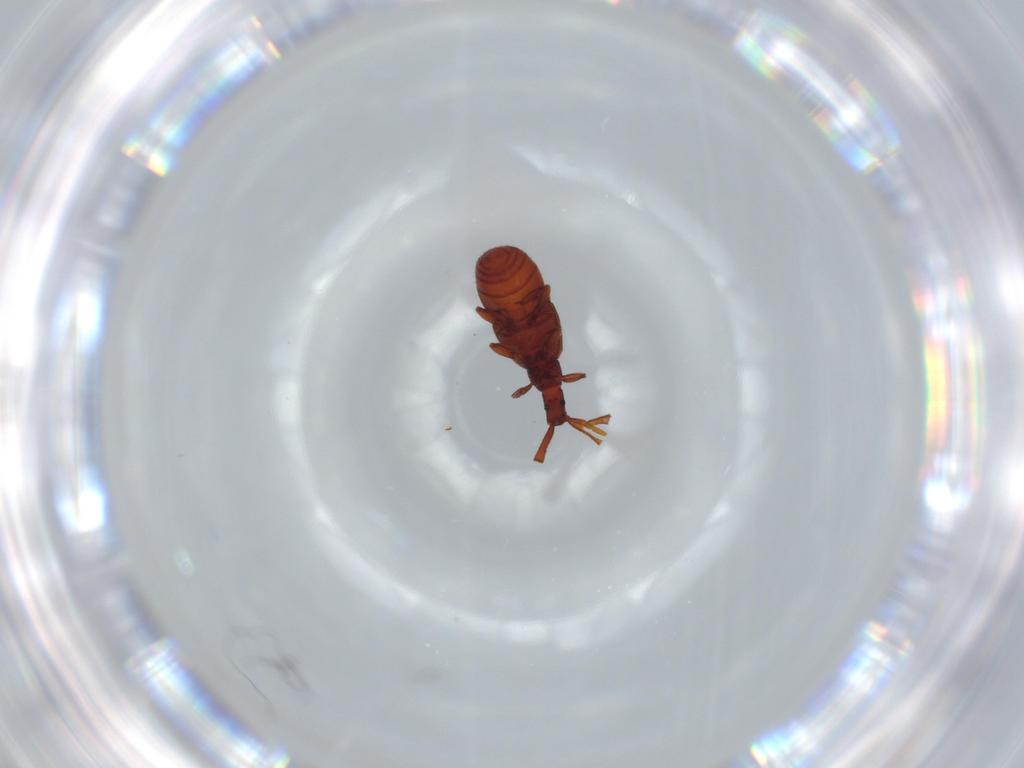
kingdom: Animalia
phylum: Arthropoda
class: Insecta
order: Coleoptera
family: Staphylinidae
